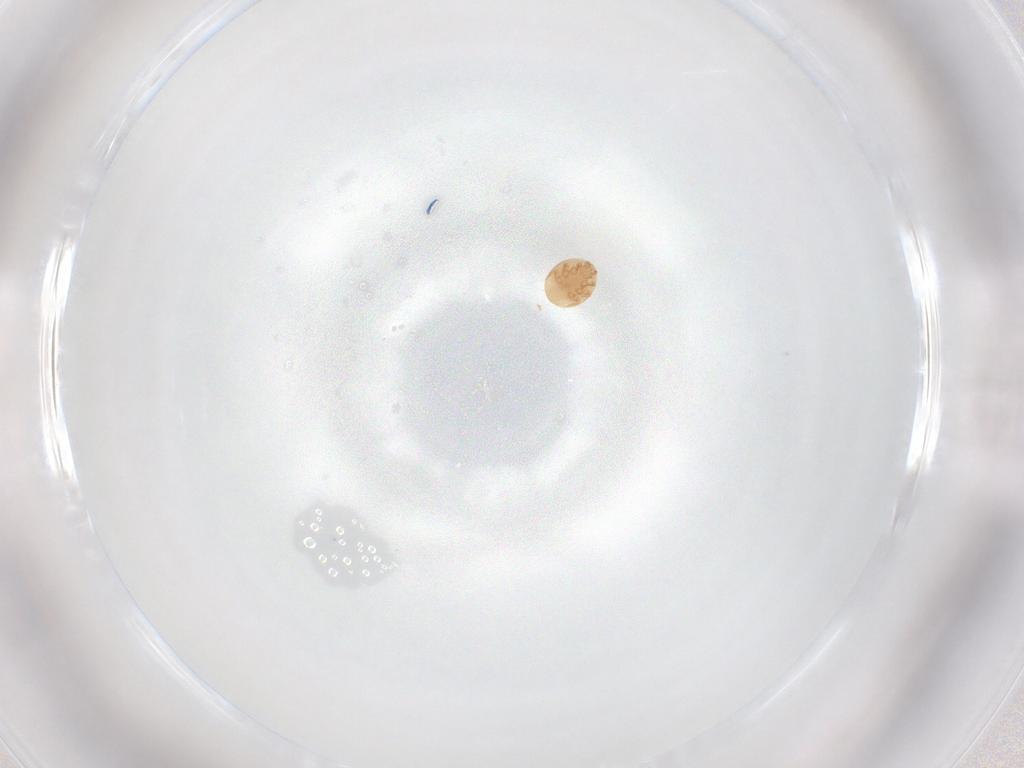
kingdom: Animalia
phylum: Arthropoda
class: Arachnida
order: Mesostigmata
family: Trematuridae
